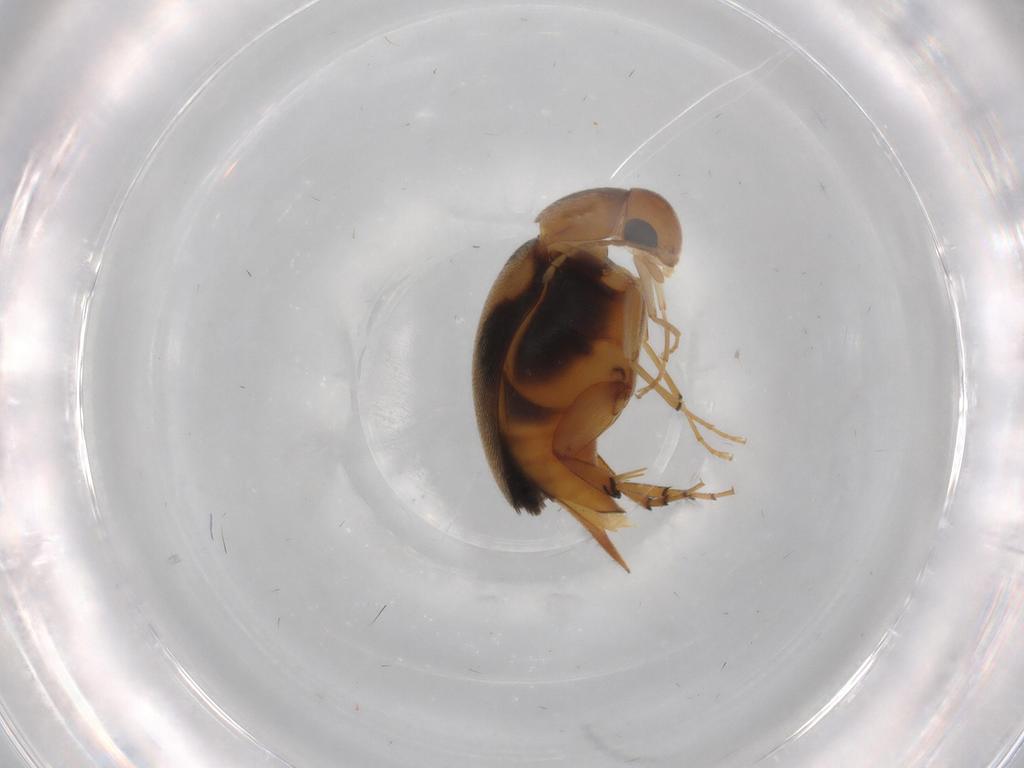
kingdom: Animalia
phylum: Arthropoda
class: Insecta
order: Coleoptera
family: Mordellidae
